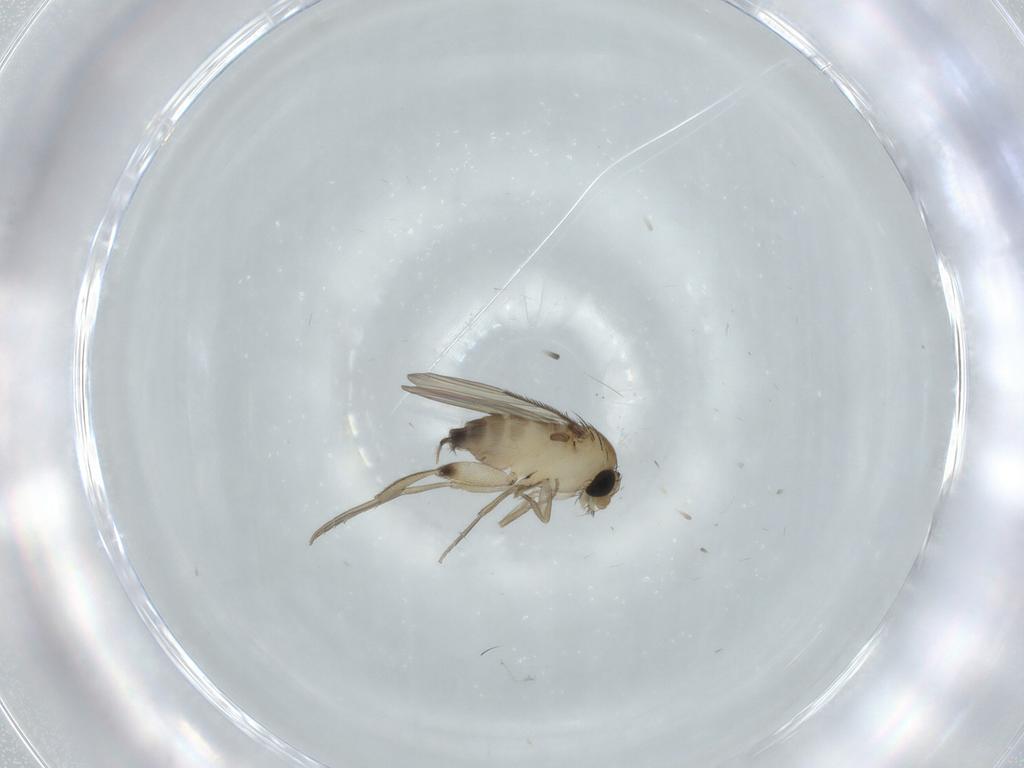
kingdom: Animalia
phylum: Arthropoda
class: Insecta
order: Diptera
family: Phoridae
